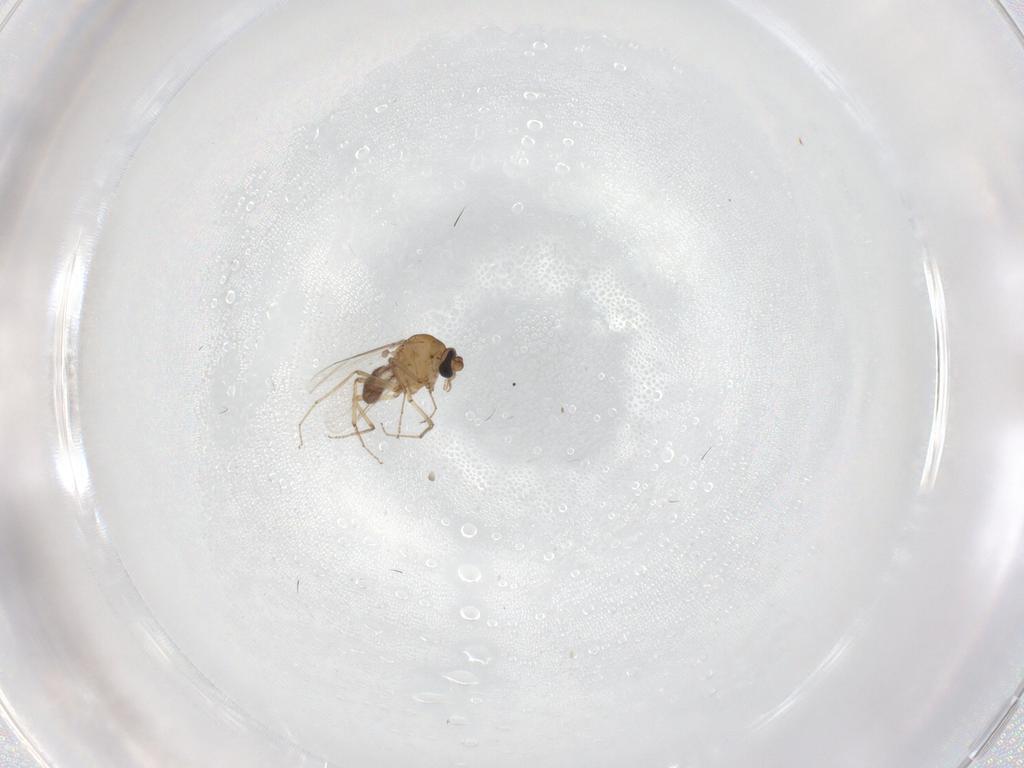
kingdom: Animalia
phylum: Arthropoda
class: Insecta
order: Diptera
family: Ceratopogonidae
